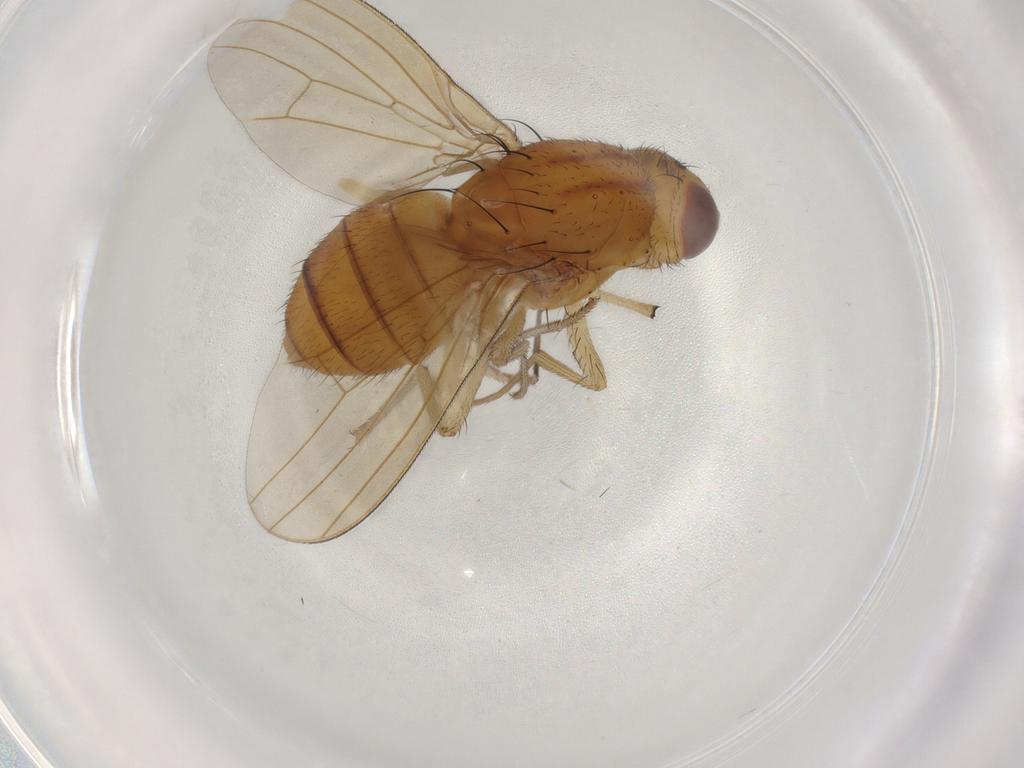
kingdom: Animalia
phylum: Arthropoda
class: Insecta
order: Diptera
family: Chironomidae
